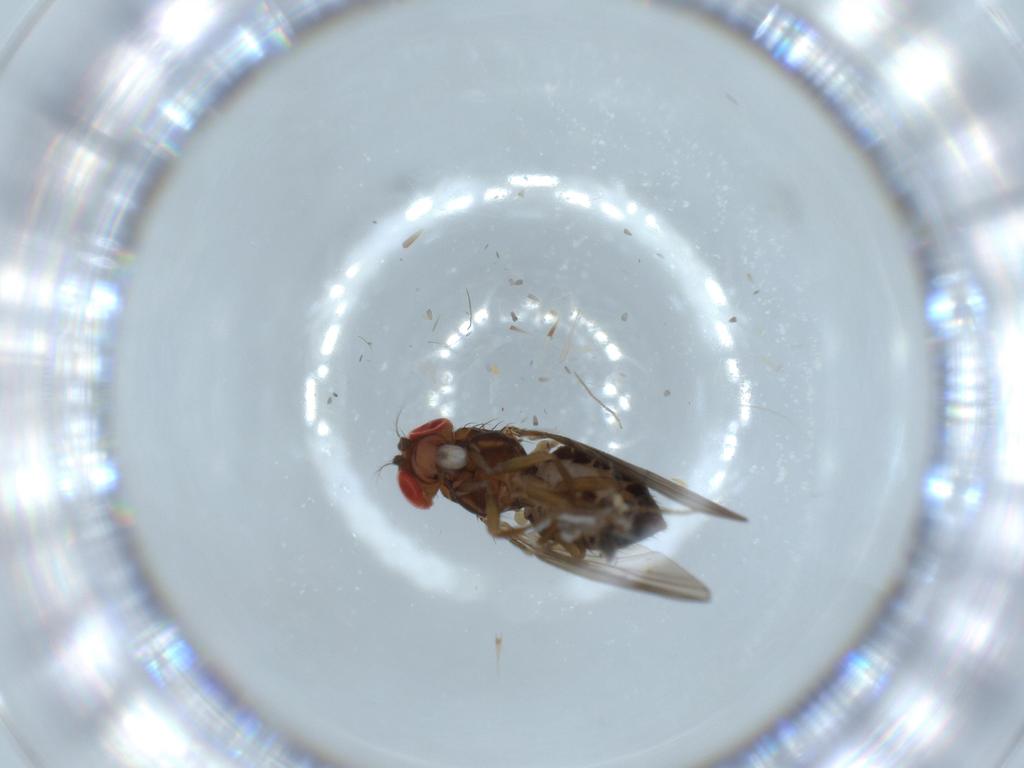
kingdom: Animalia
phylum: Arthropoda
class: Insecta
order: Diptera
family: Drosophilidae
